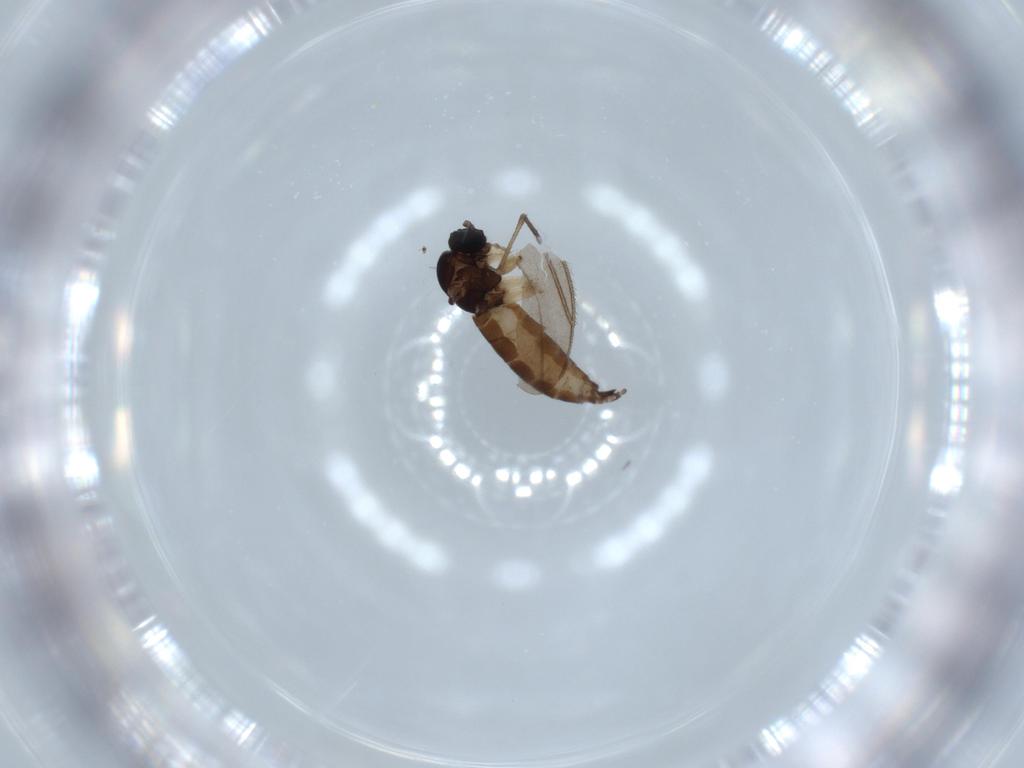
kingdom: Animalia
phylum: Arthropoda
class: Insecta
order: Diptera
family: Sciaridae
